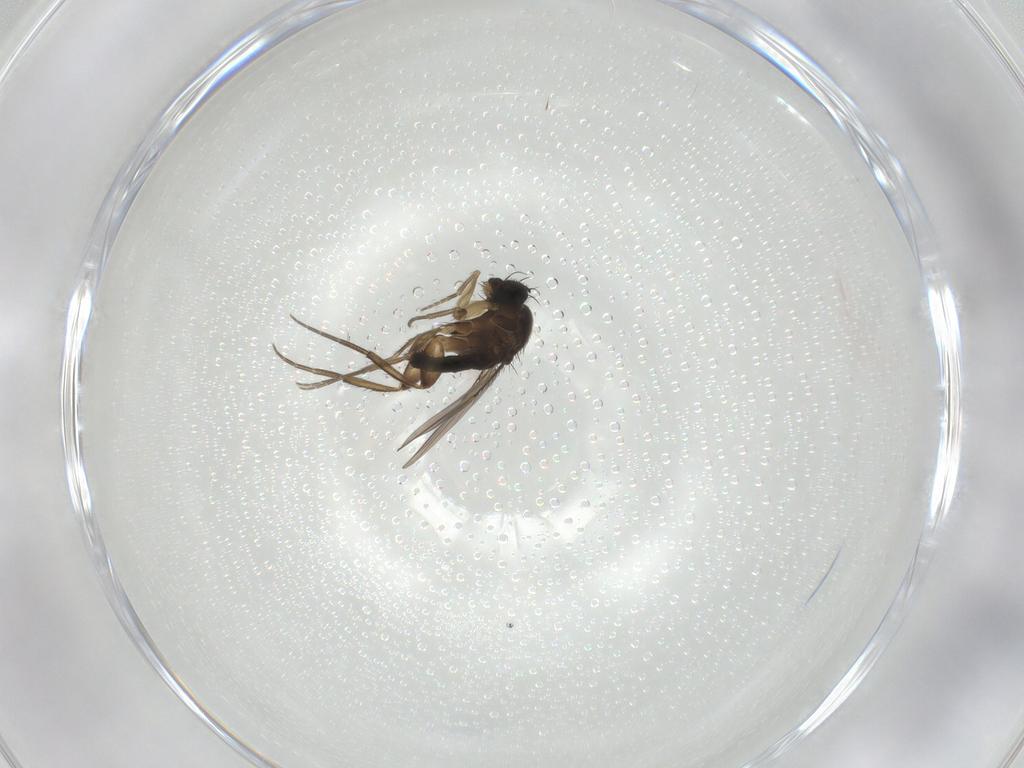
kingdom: Animalia
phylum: Arthropoda
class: Insecta
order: Diptera
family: Phoridae
